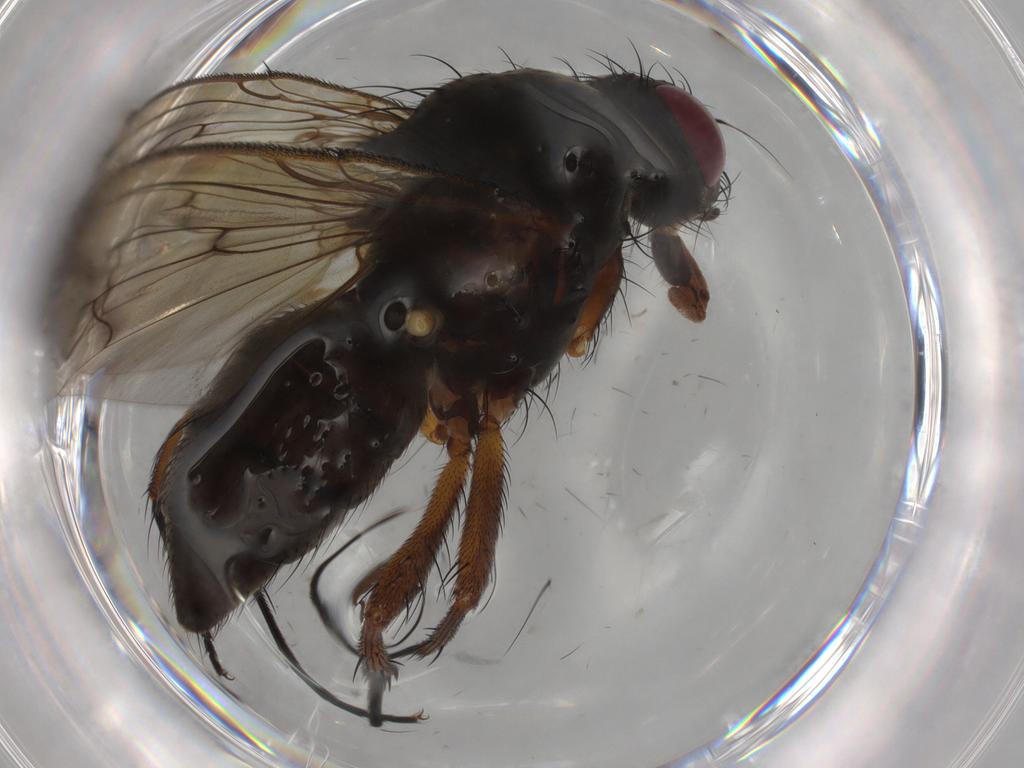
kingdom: Animalia
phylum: Arthropoda
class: Insecta
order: Diptera
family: Anthomyiidae
